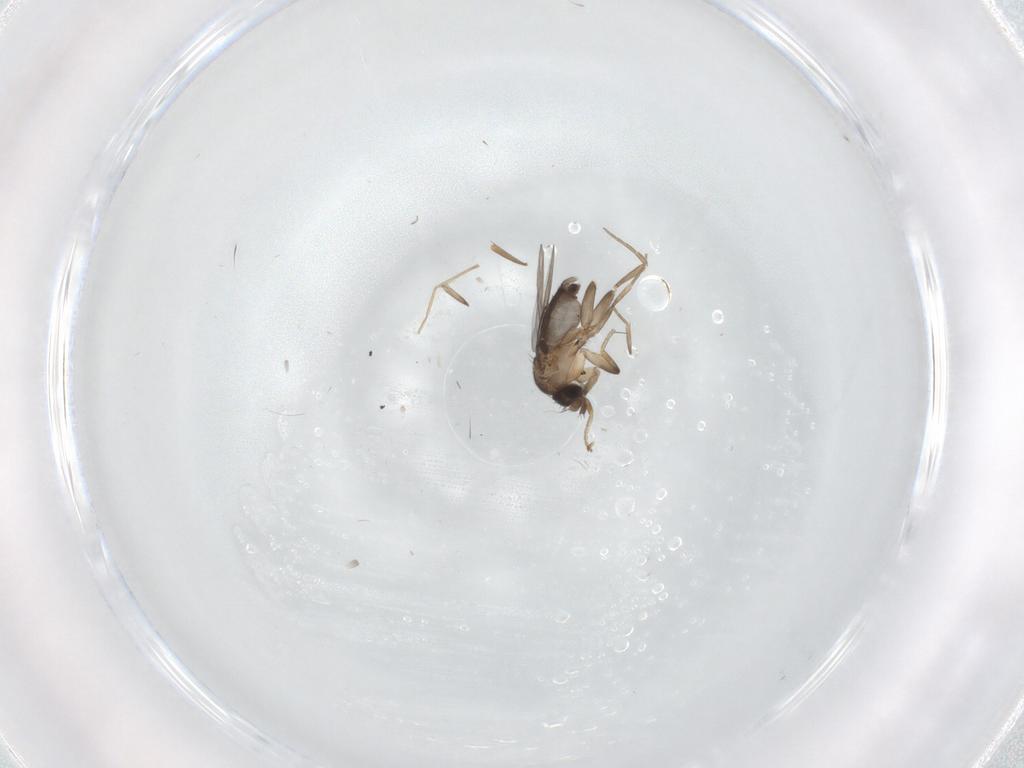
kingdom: Animalia
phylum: Arthropoda
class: Insecta
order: Diptera
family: Phoridae
